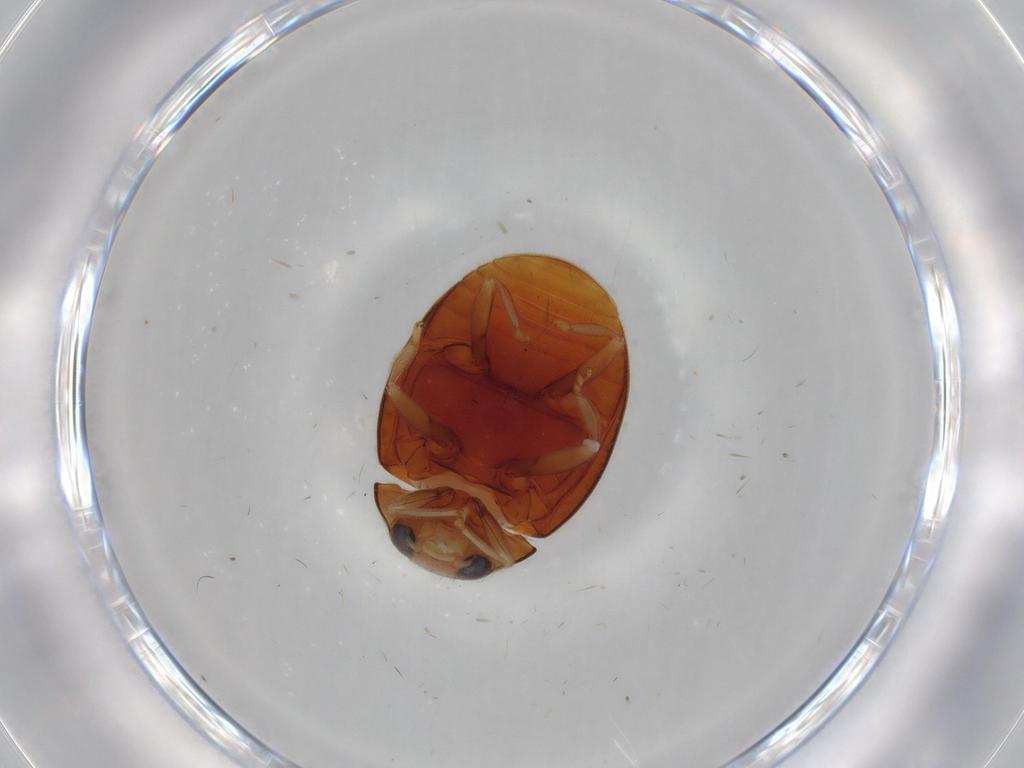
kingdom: Animalia
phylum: Arthropoda
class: Insecta
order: Coleoptera
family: Coccinellidae
